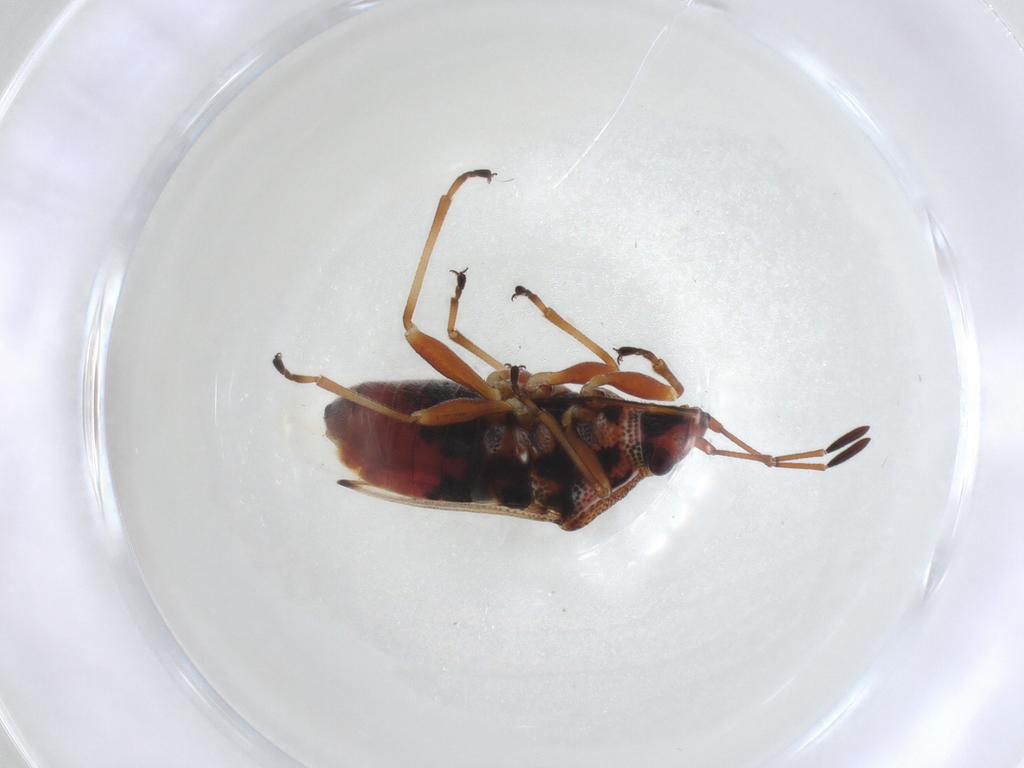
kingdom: Animalia
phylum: Arthropoda
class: Insecta
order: Hemiptera
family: Lygaeidae
